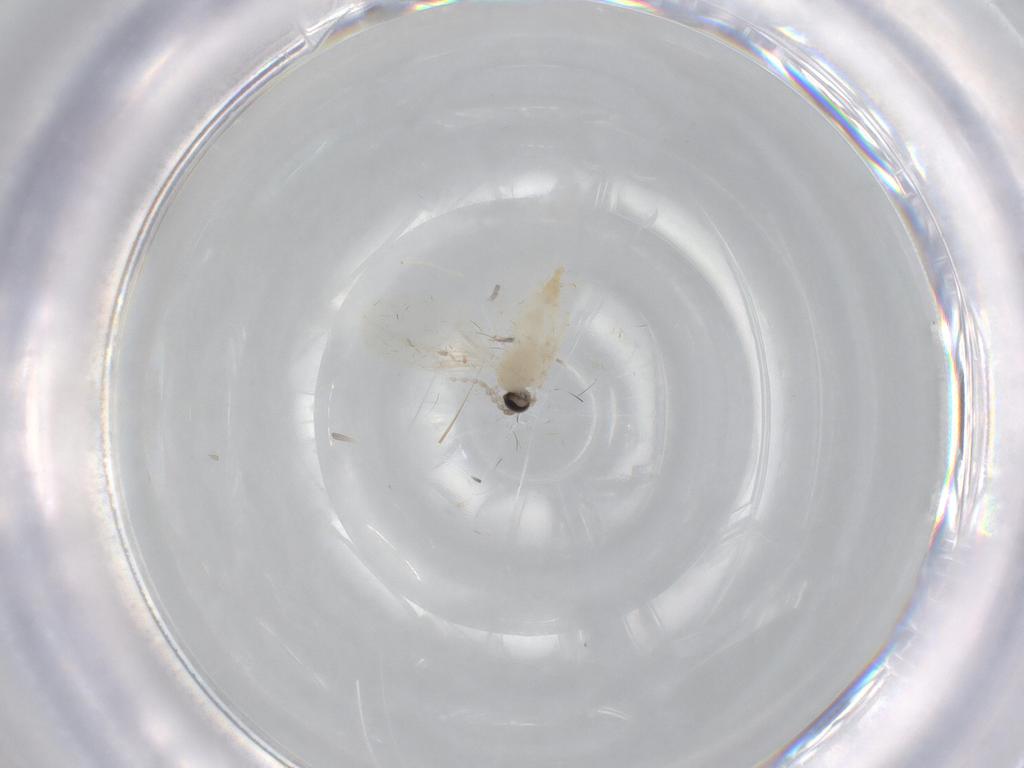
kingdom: Animalia
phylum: Arthropoda
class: Insecta
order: Diptera
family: Cecidomyiidae
